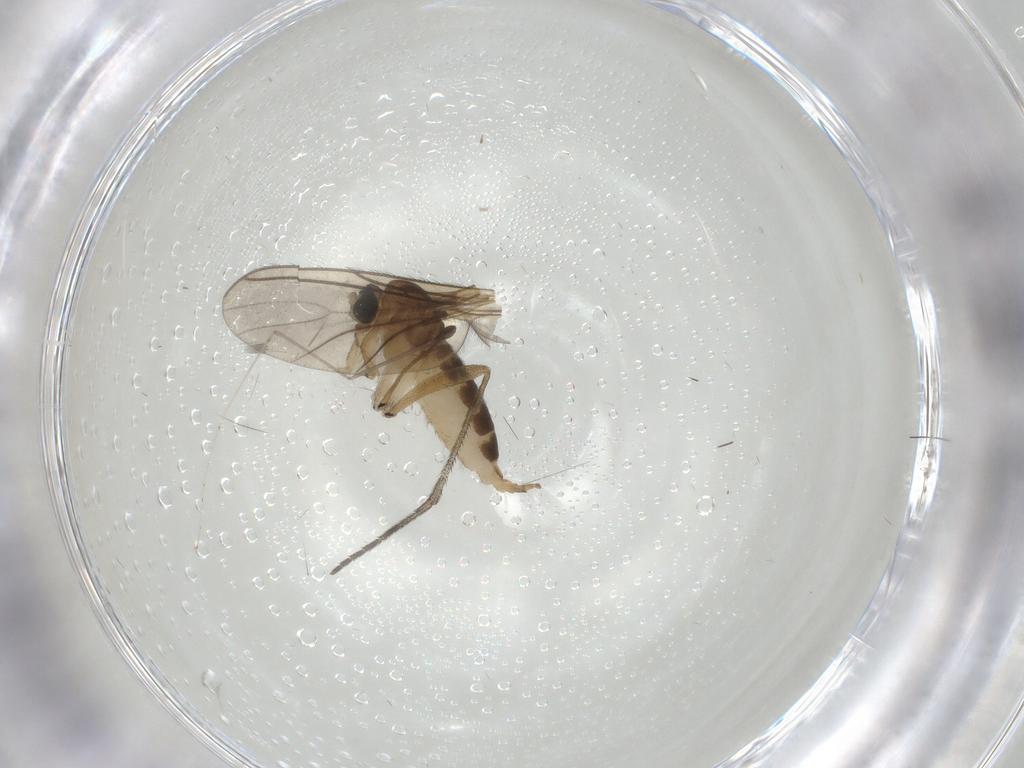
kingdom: Animalia
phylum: Arthropoda
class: Insecta
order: Diptera
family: Sciaridae
